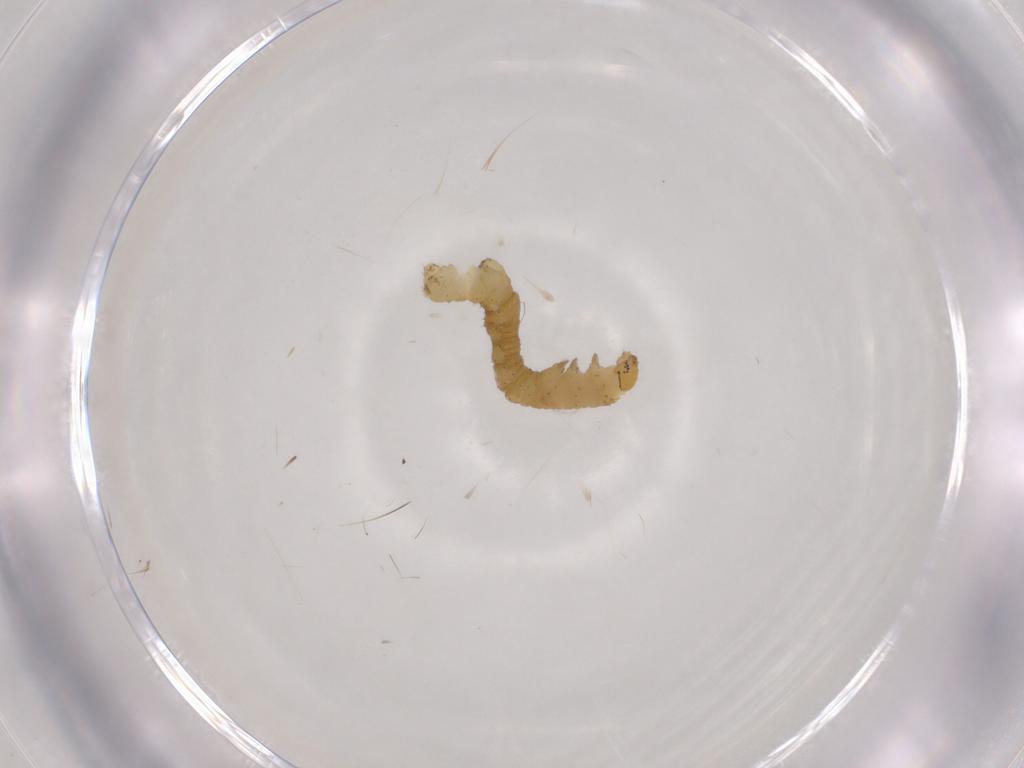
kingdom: Animalia
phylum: Arthropoda
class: Insecta
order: Lepidoptera
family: Geometridae
